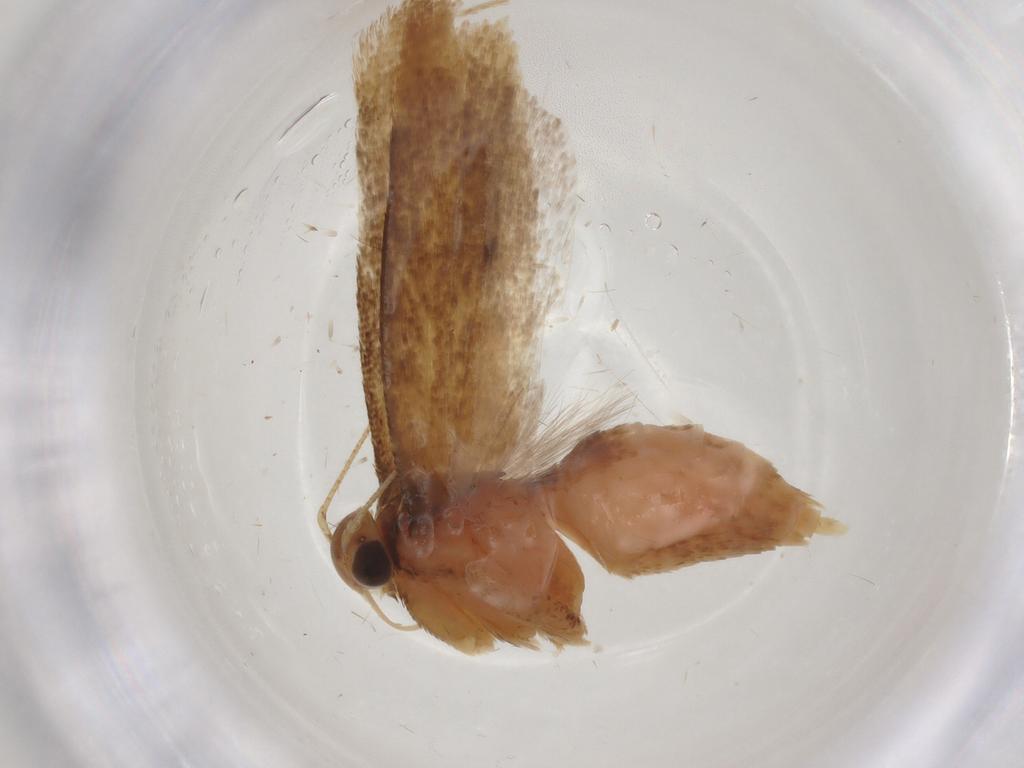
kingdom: Animalia
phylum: Arthropoda
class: Insecta
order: Lepidoptera
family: Gelechiidae
